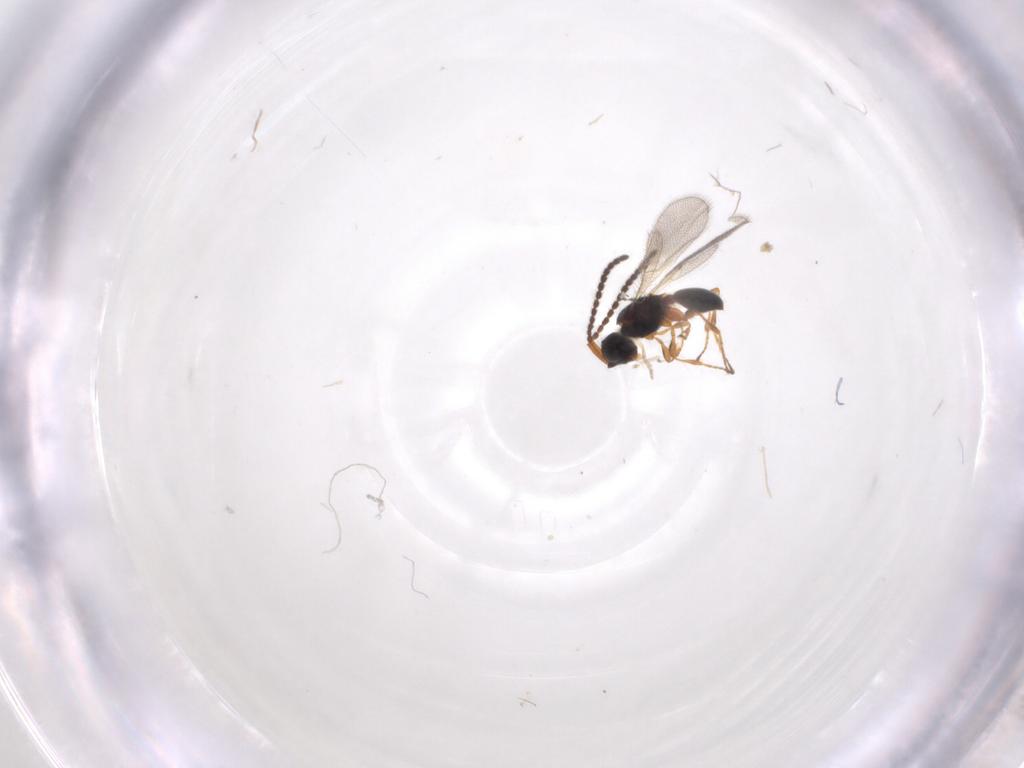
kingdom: Animalia
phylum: Arthropoda
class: Insecta
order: Hymenoptera
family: Diapriidae
